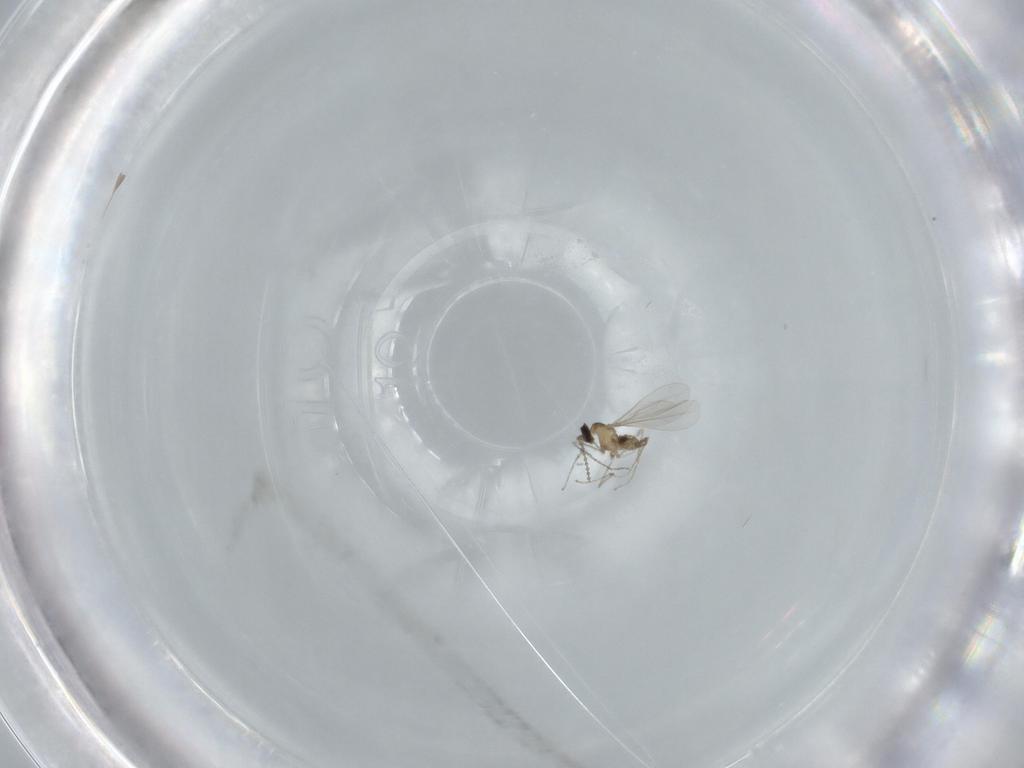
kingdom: Animalia
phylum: Arthropoda
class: Insecta
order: Diptera
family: Cecidomyiidae
